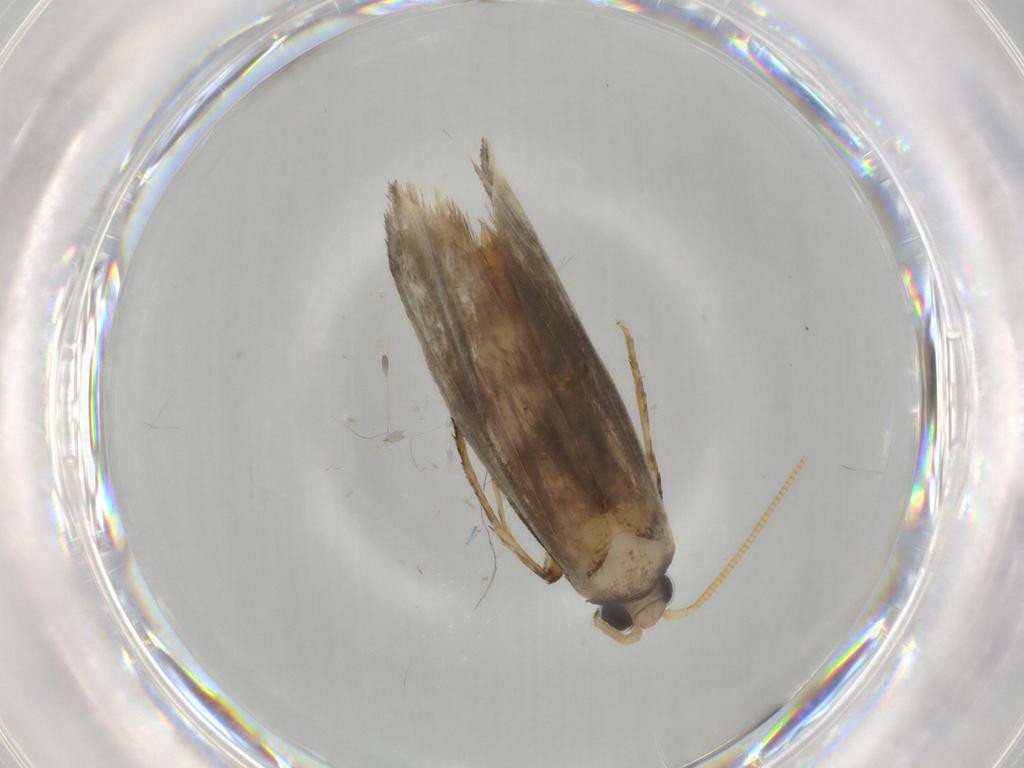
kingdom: Animalia
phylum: Arthropoda
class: Insecta
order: Lepidoptera
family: Tineidae
